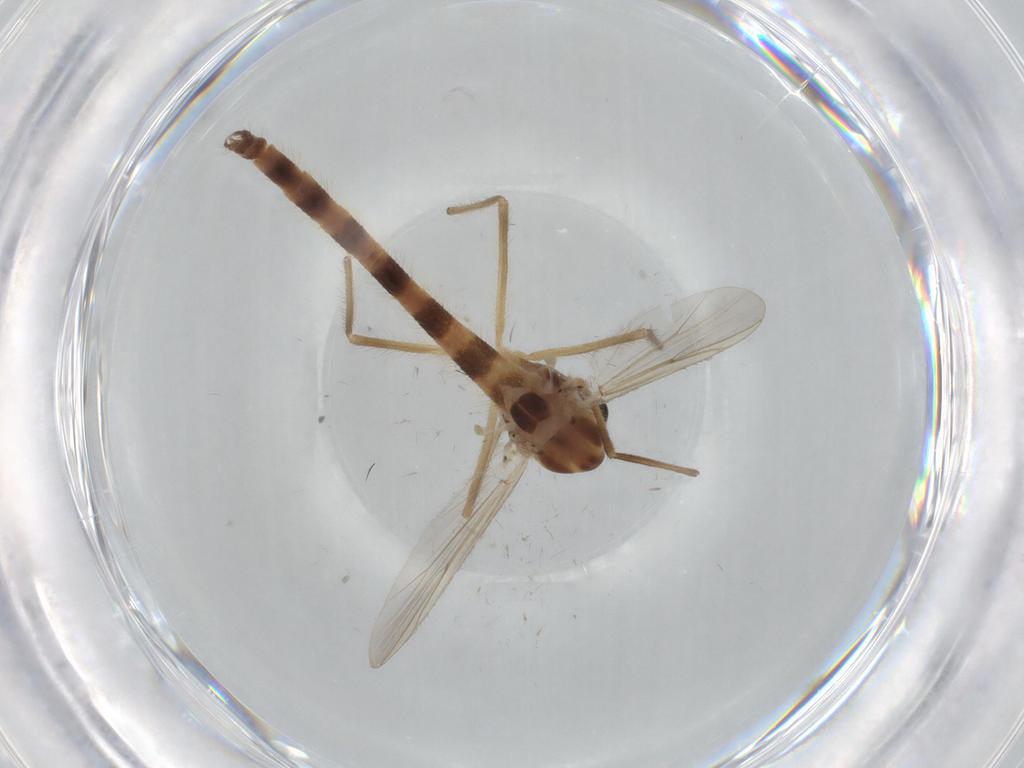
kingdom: Animalia
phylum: Arthropoda
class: Insecta
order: Diptera
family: Chironomidae
